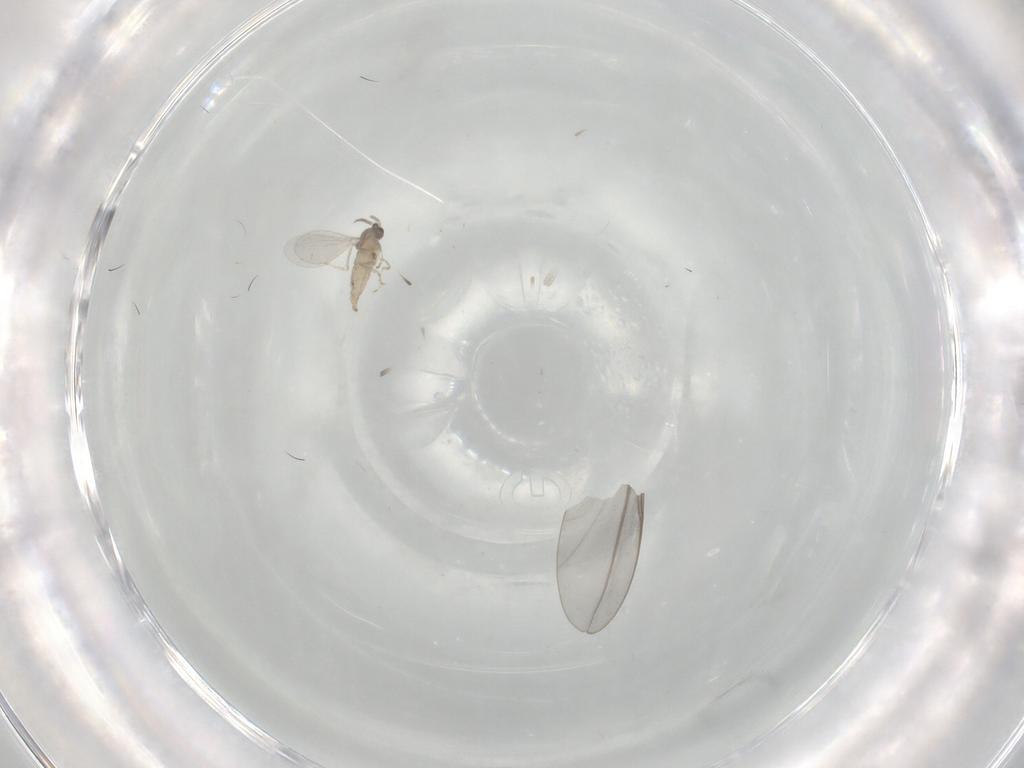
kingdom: Animalia
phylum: Arthropoda
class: Insecta
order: Diptera
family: Cecidomyiidae
